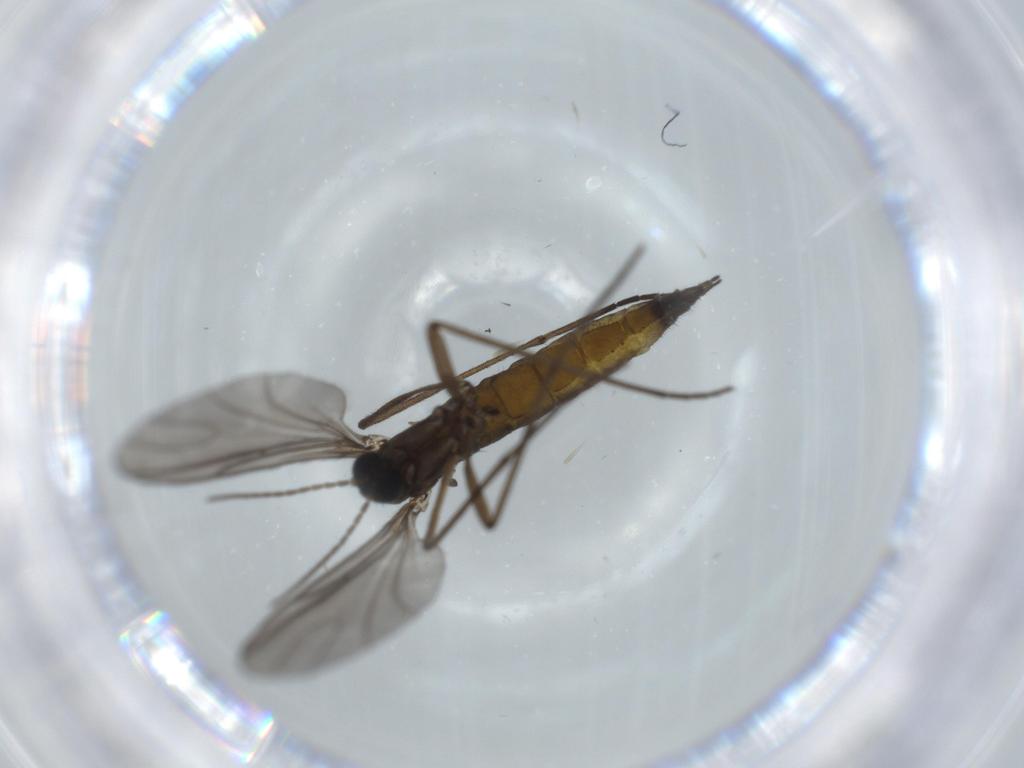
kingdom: Animalia
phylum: Arthropoda
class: Insecta
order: Diptera
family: Sciaridae
